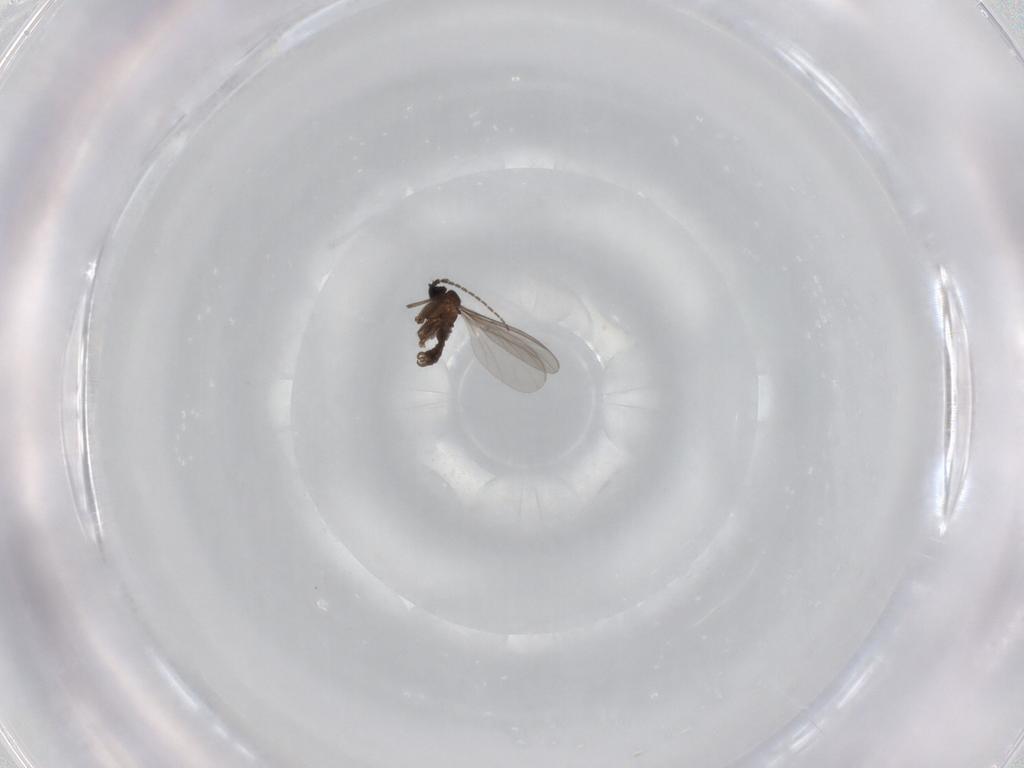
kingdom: Animalia
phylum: Arthropoda
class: Insecta
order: Diptera
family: Sciaridae
